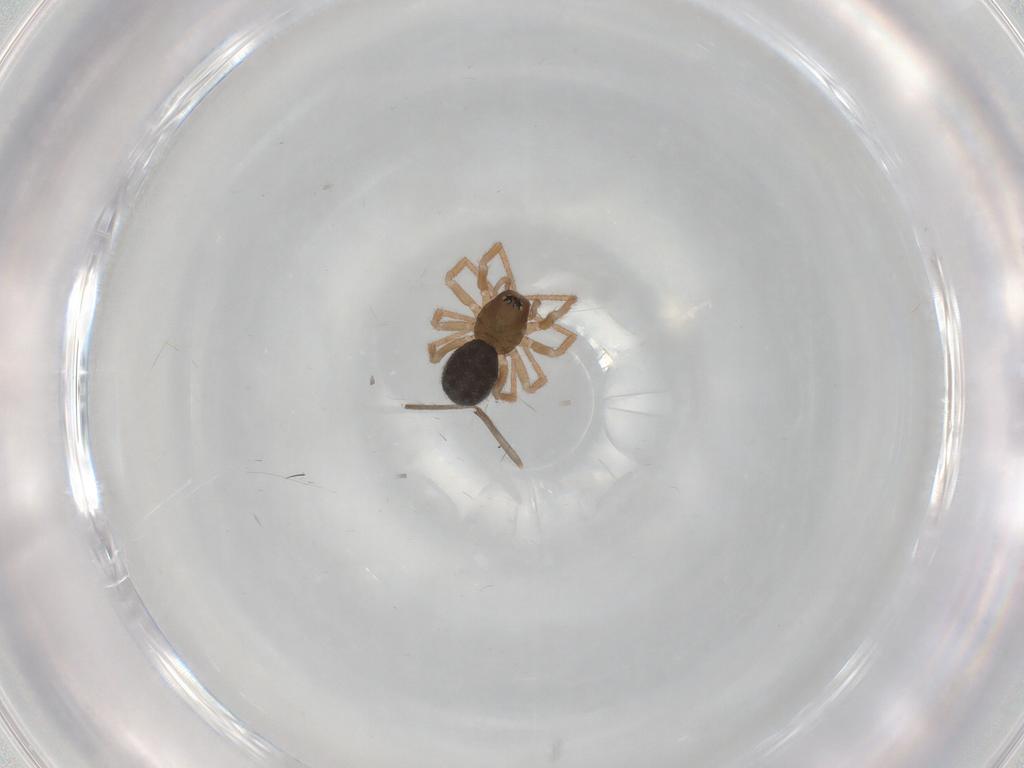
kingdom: Animalia
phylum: Arthropoda
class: Arachnida
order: Araneae
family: Linyphiidae
